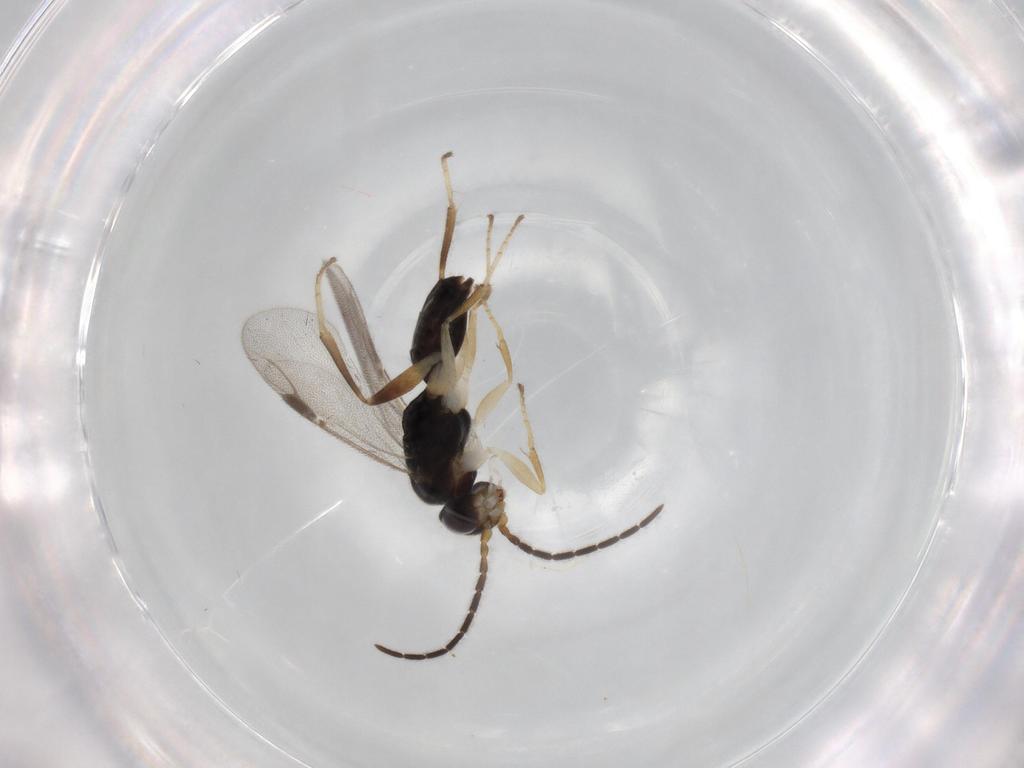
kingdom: Animalia
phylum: Arthropoda
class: Insecta
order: Hymenoptera
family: Dryinidae
